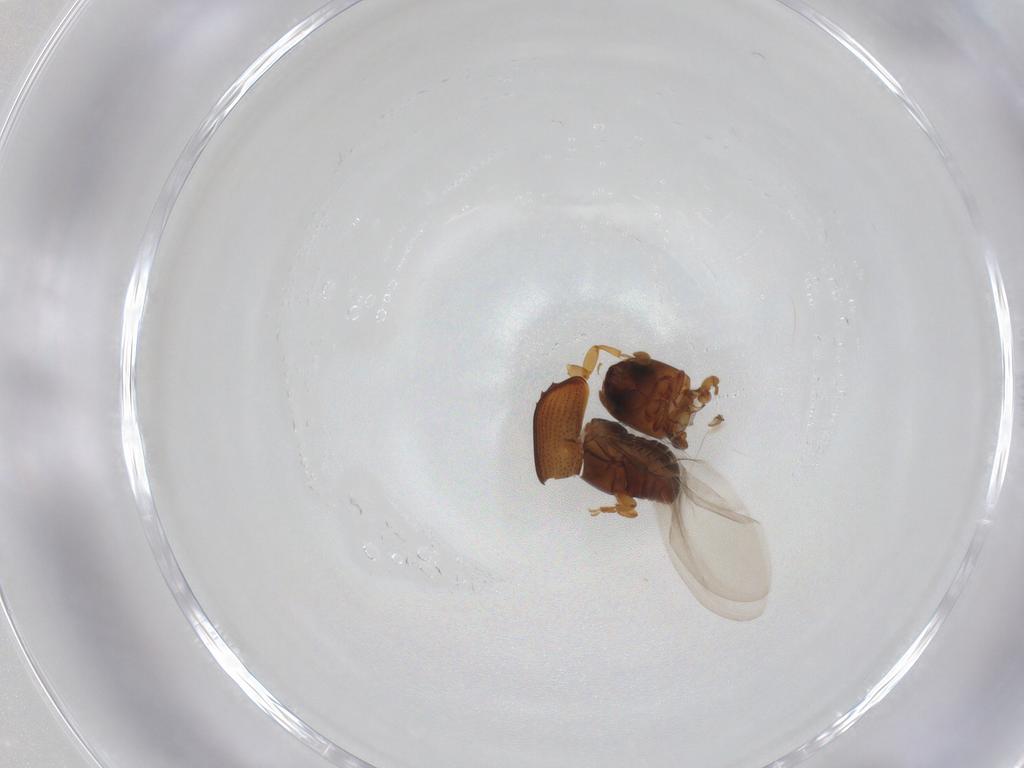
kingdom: Animalia
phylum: Arthropoda
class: Insecta
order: Coleoptera
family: Curculionidae
